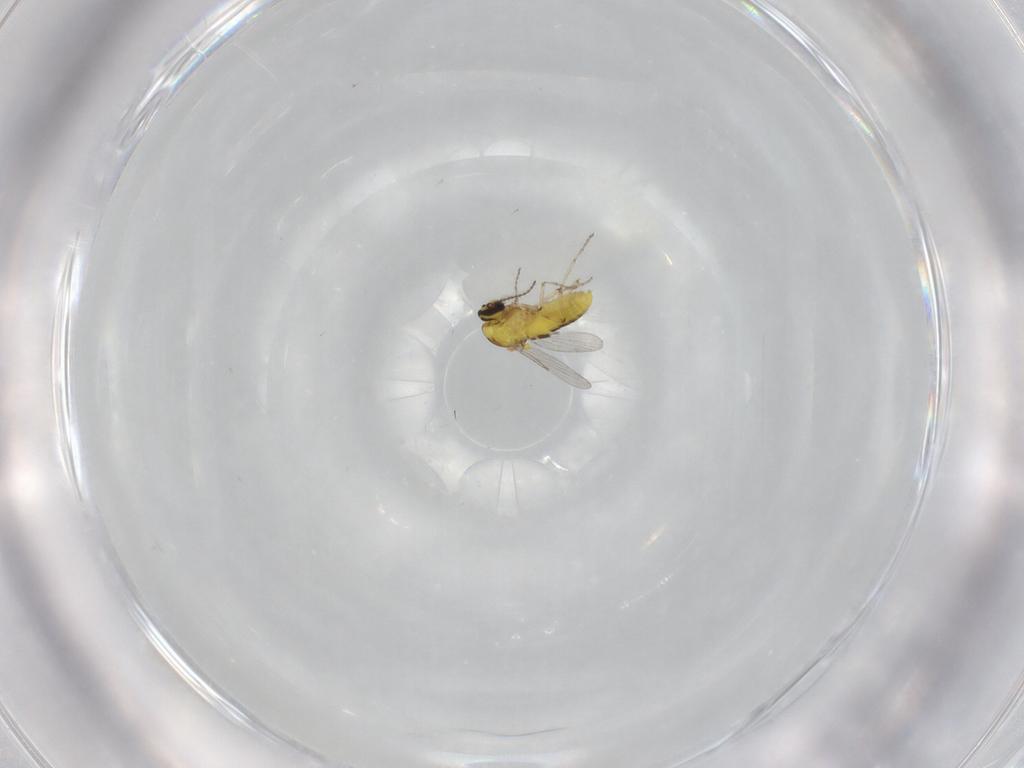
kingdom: Animalia
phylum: Arthropoda
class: Insecta
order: Diptera
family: Ceratopogonidae
